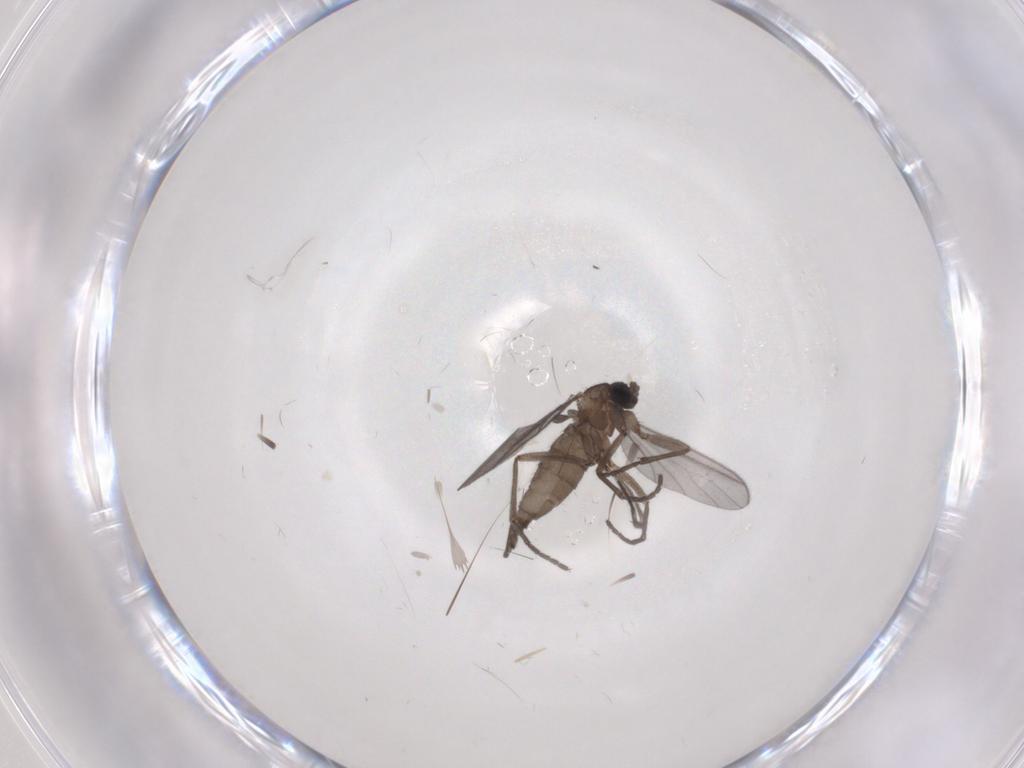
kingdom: Animalia
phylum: Arthropoda
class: Insecta
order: Diptera
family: Sciaridae
